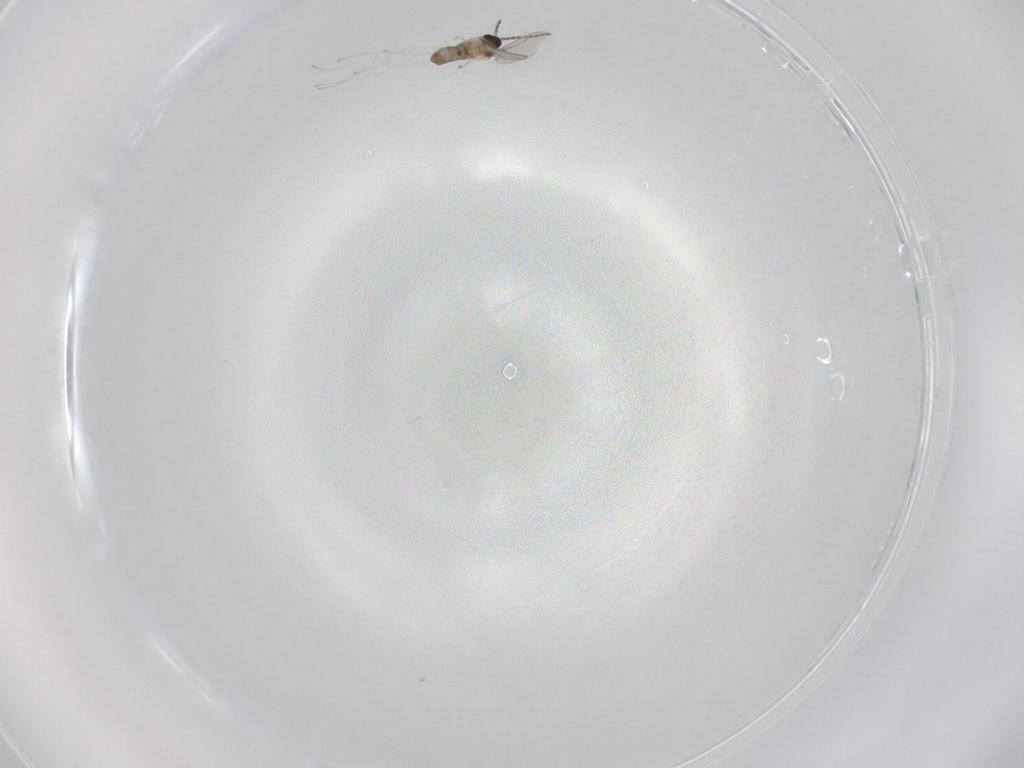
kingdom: Animalia
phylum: Arthropoda
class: Insecta
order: Diptera
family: Cecidomyiidae
